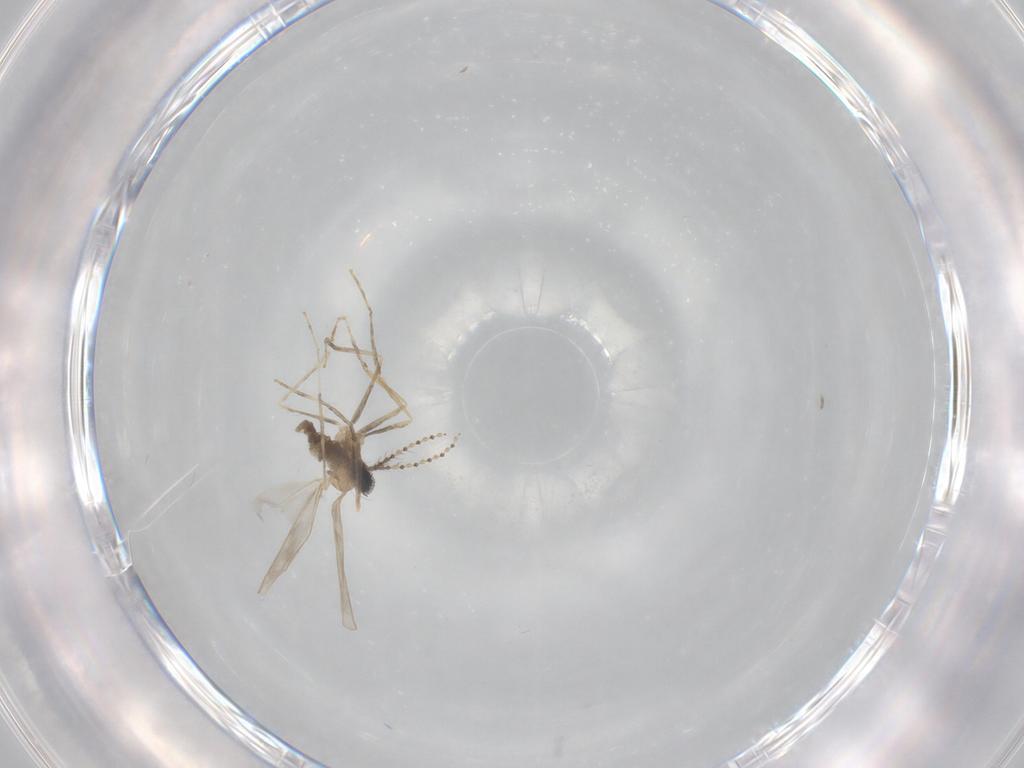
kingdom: Animalia
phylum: Arthropoda
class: Insecta
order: Diptera
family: Psychodidae
